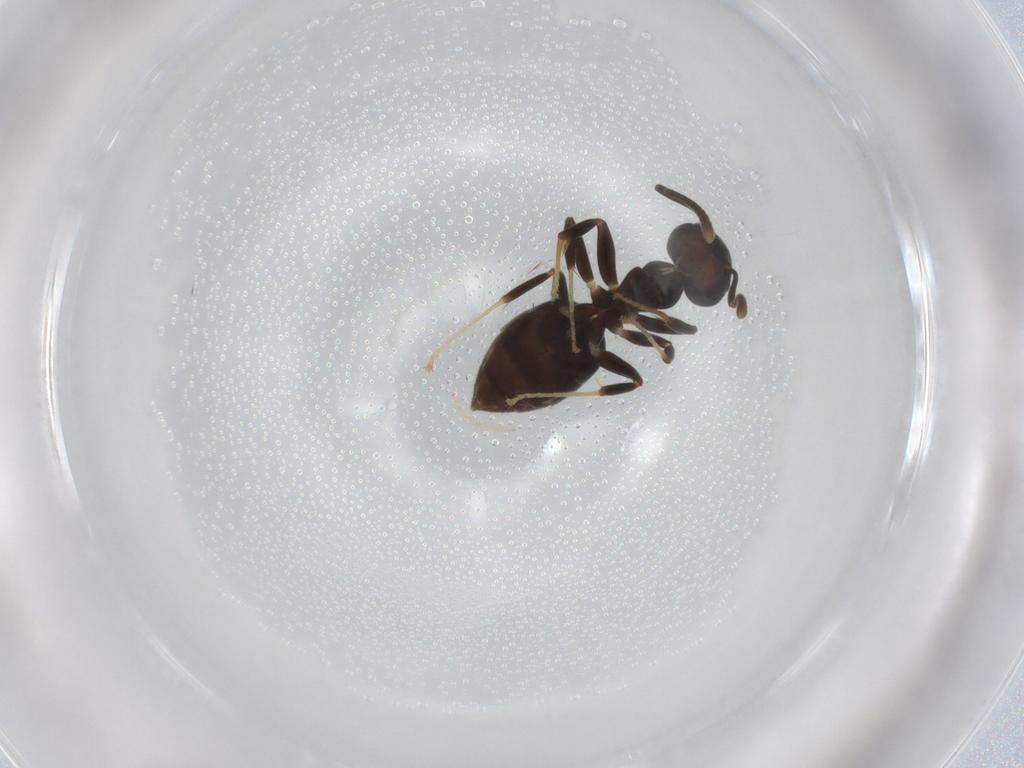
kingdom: Animalia
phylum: Arthropoda
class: Insecta
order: Hymenoptera
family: Formicidae
